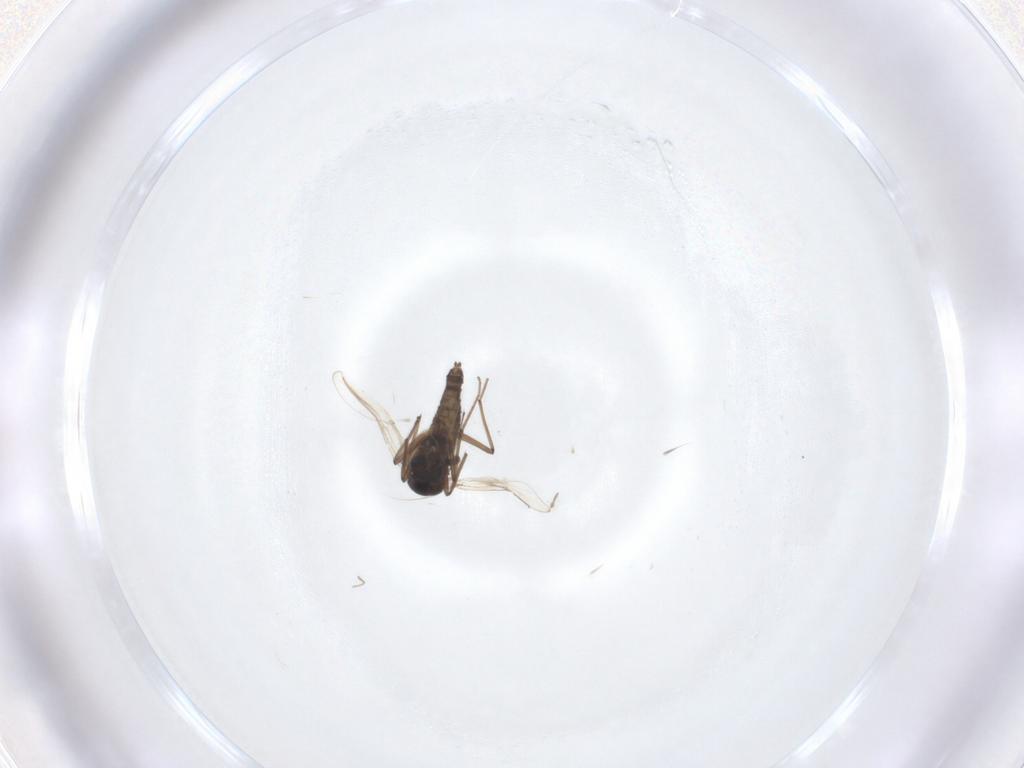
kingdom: Animalia
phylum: Arthropoda
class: Insecta
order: Diptera
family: Chironomidae
